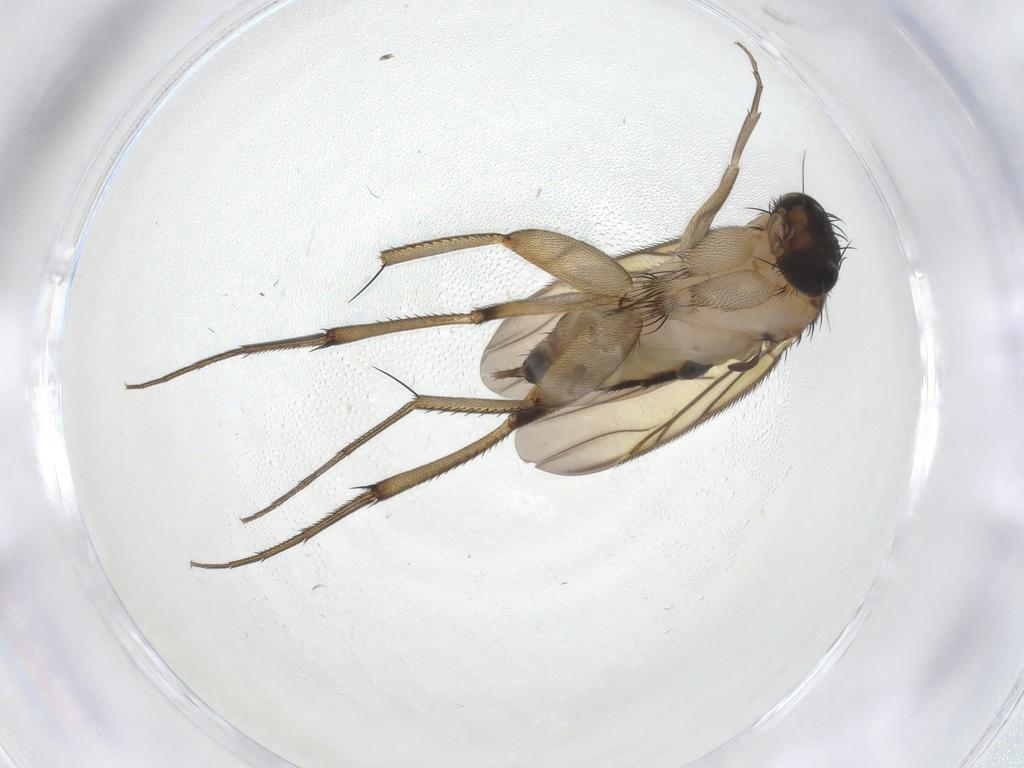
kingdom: Animalia
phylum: Arthropoda
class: Insecta
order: Diptera
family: Phoridae
